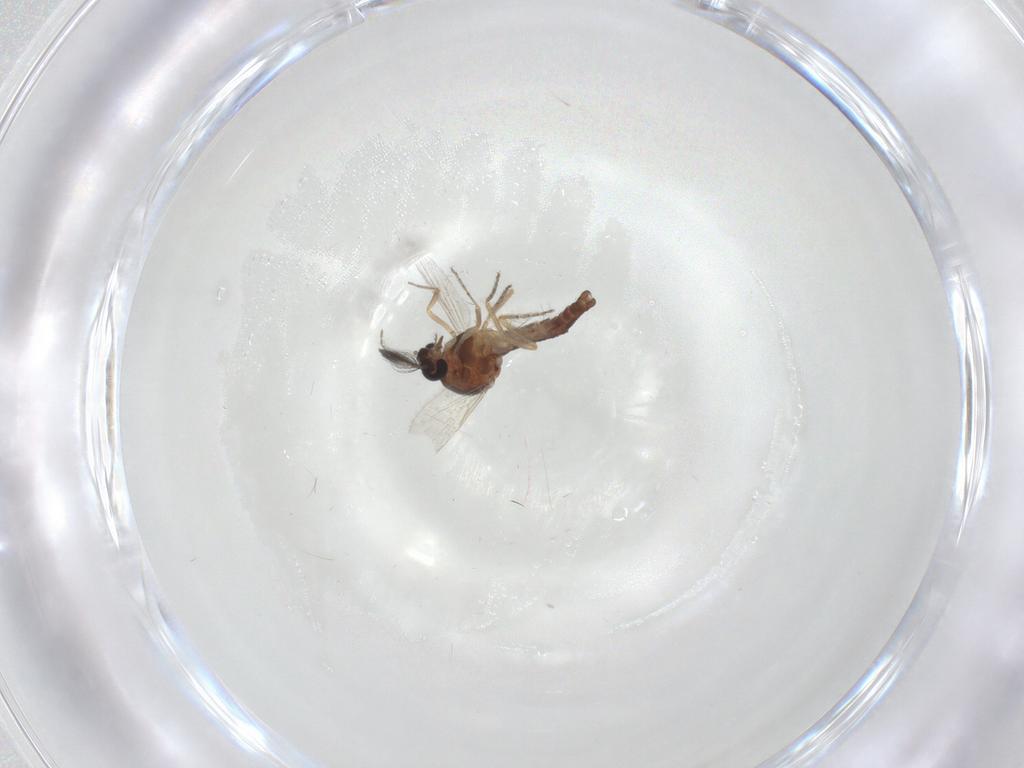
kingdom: Animalia
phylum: Arthropoda
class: Insecta
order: Diptera
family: Ceratopogonidae
